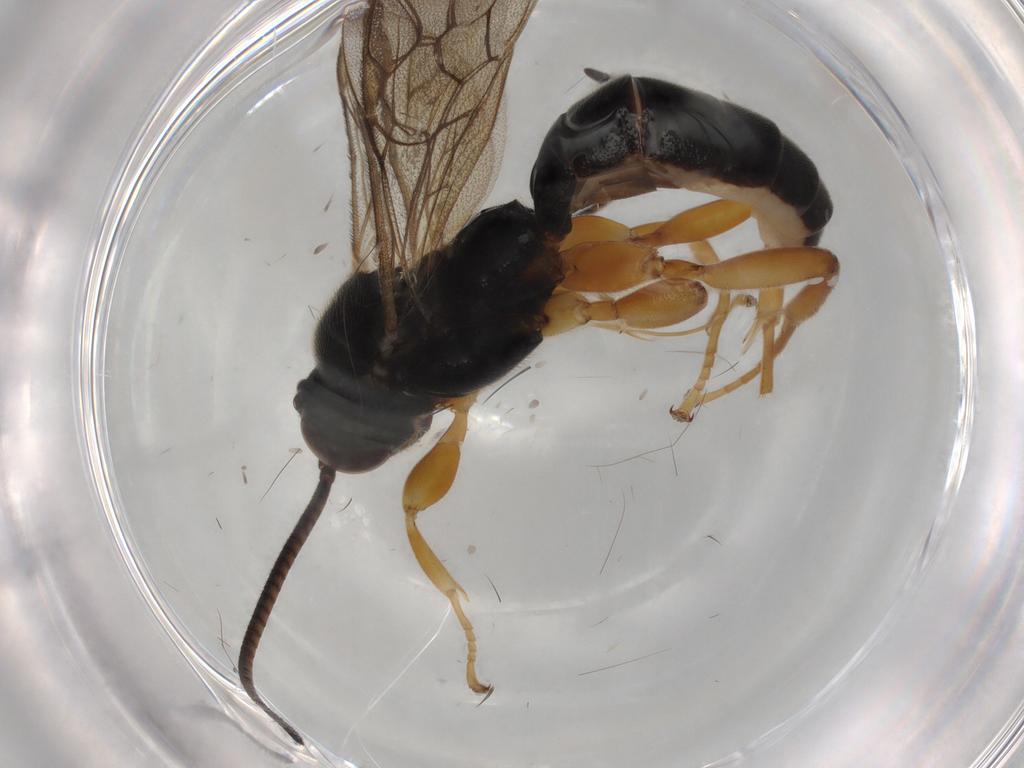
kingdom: Animalia
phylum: Arthropoda
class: Insecta
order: Hymenoptera
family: Ichneumonidae
